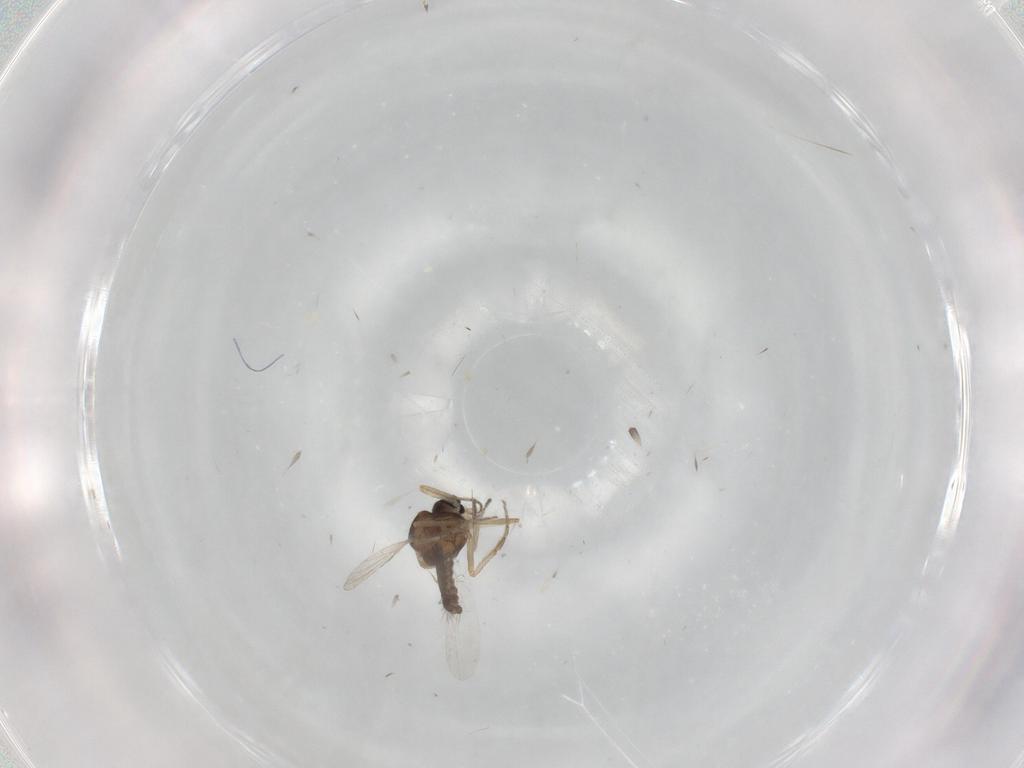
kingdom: Animalia
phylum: Arthropoda
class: Insecta
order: Diptera
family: Ceratopogonidae
